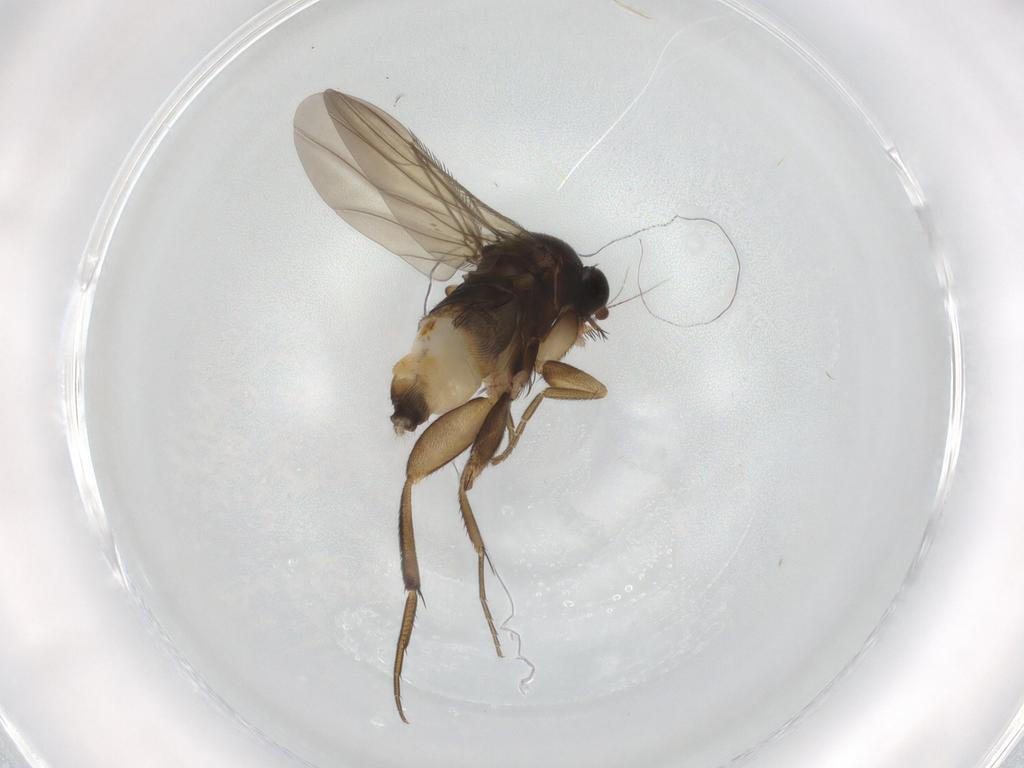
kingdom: Animalia
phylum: Arthropoda
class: Insecta
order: Diptera
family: Phoridae
